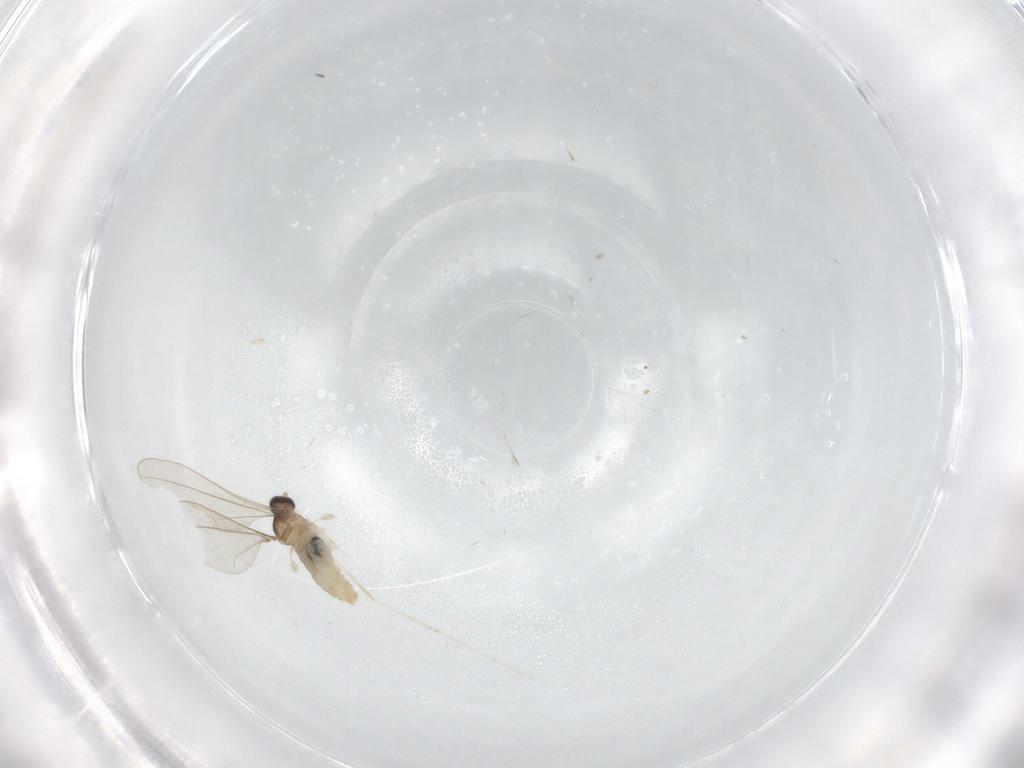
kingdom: Animalia
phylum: Arthropoda
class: Insecta
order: Diptera
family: Cecidomyiidae
